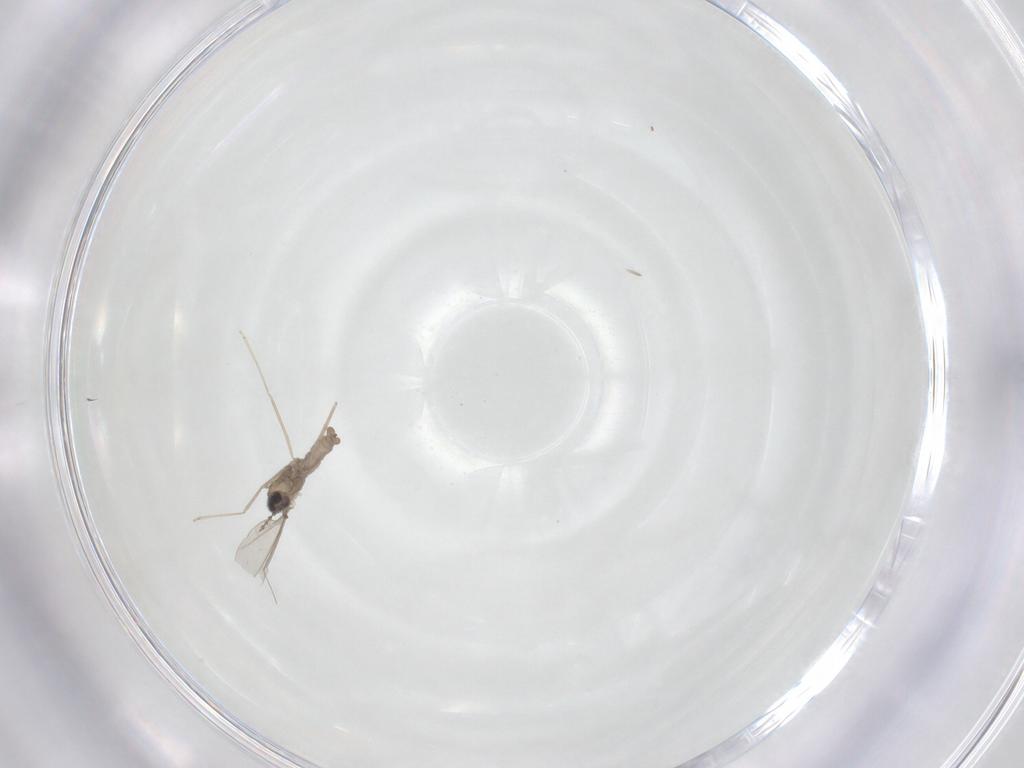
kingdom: Animalia
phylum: Arthropoda
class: Insecta
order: Diptera
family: Cecidomyiidae
